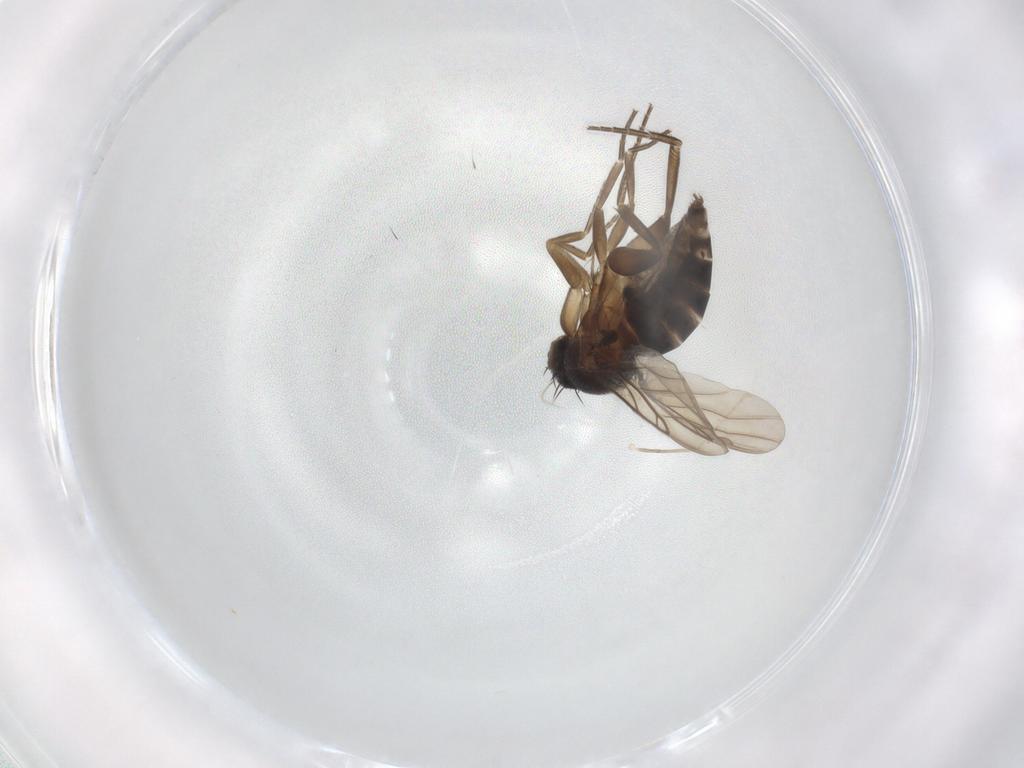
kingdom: Animalia
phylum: Arthropoda
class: Insecta
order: Diptera
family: Phoridae
